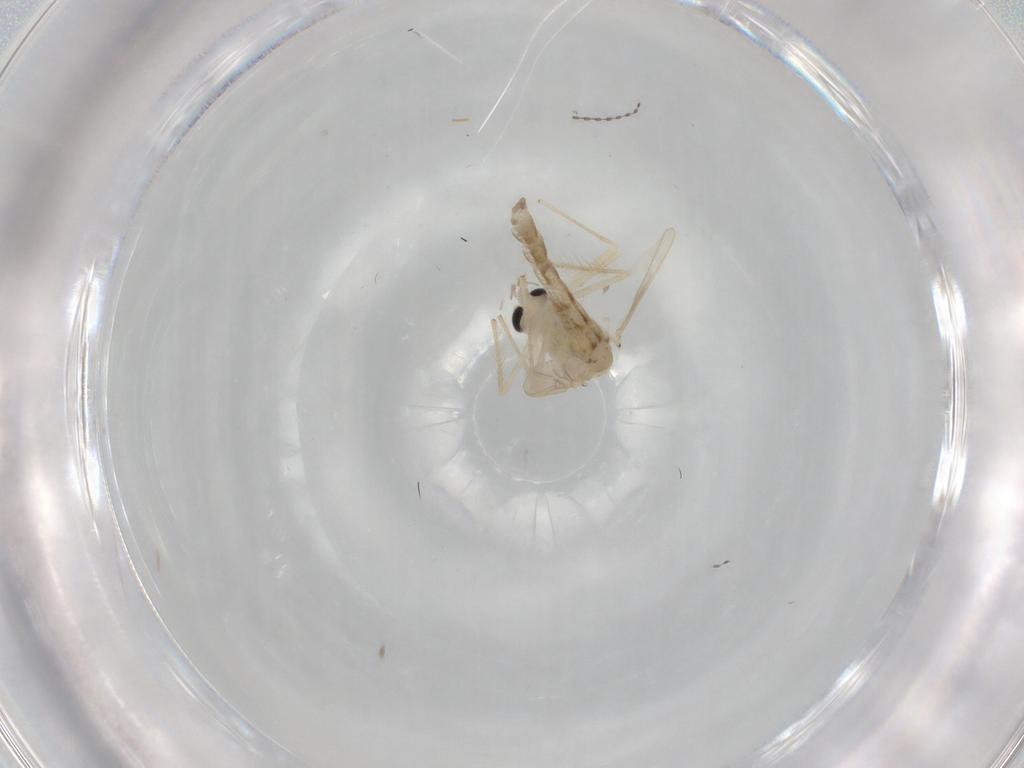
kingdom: Animalia
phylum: Arthropoda
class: Insecta
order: Diptera
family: Chironomidae
